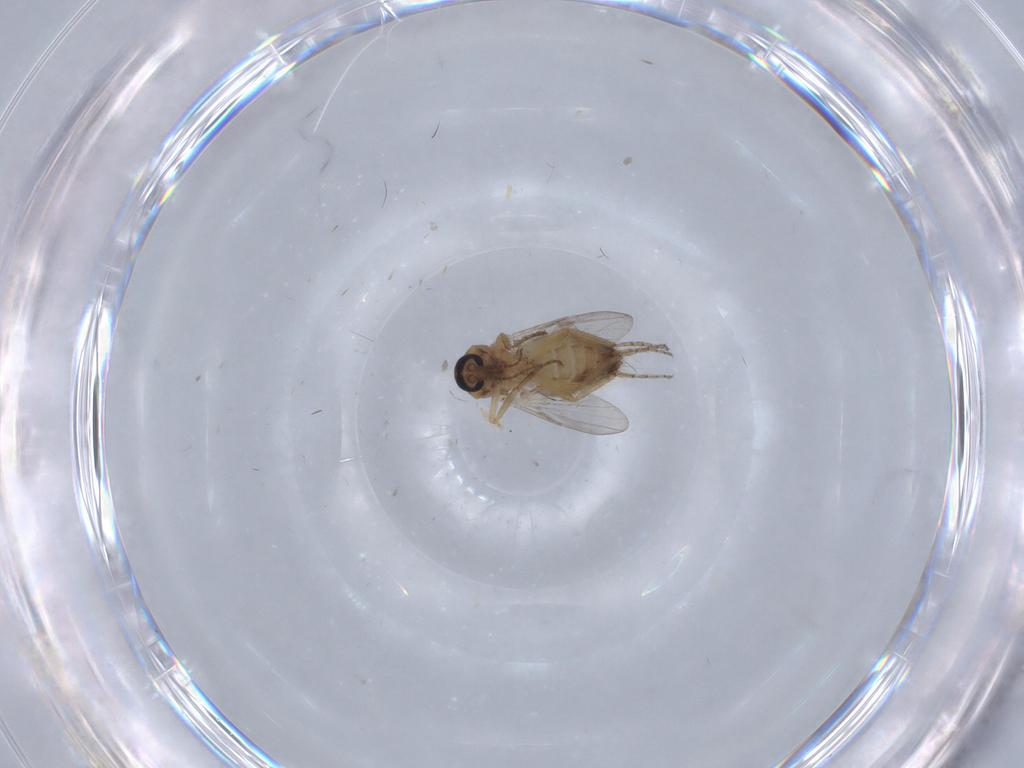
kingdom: Animalia
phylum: Arthropoda
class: Insecta
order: Diptera
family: Ceratopogonidae
